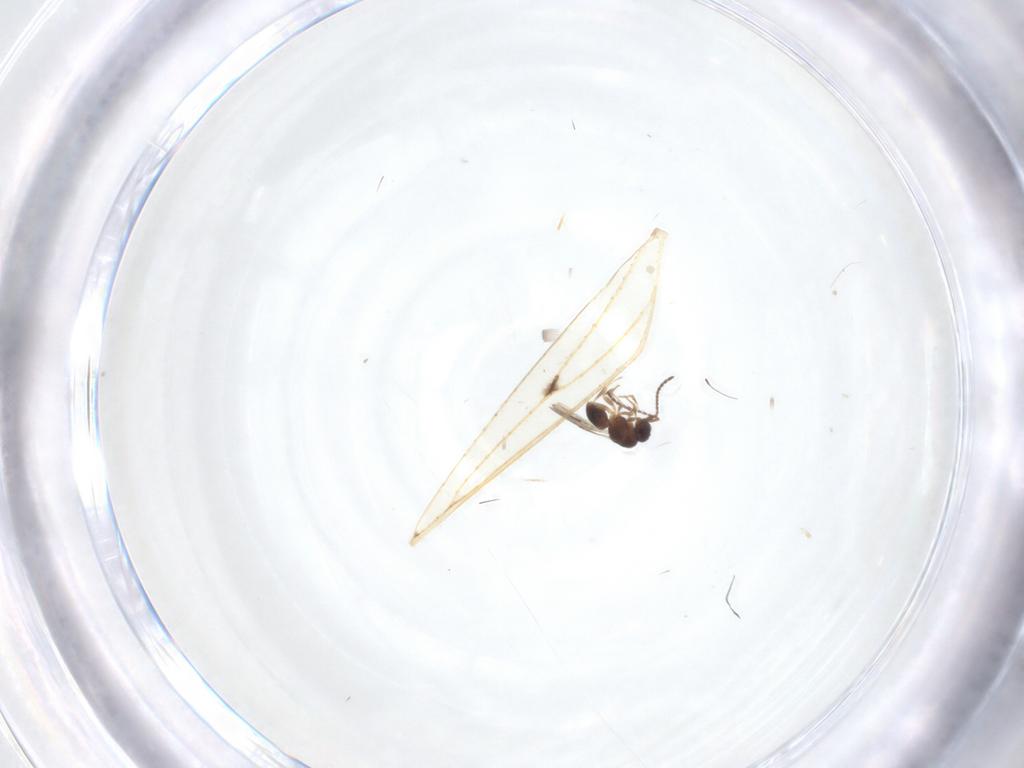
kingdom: Animalia
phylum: Arthropoda
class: Insecta
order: Diptera
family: Cecidomyiidae
